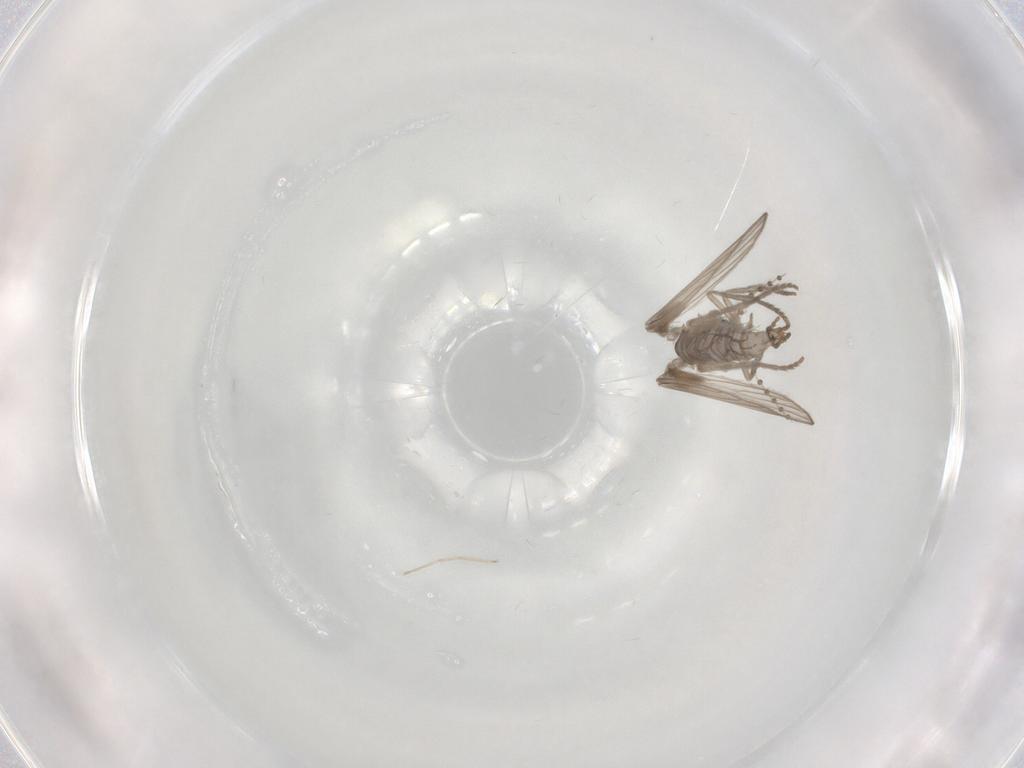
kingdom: Animalia
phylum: Arthropoda
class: Insecta
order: Diptera
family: Psychodidae
